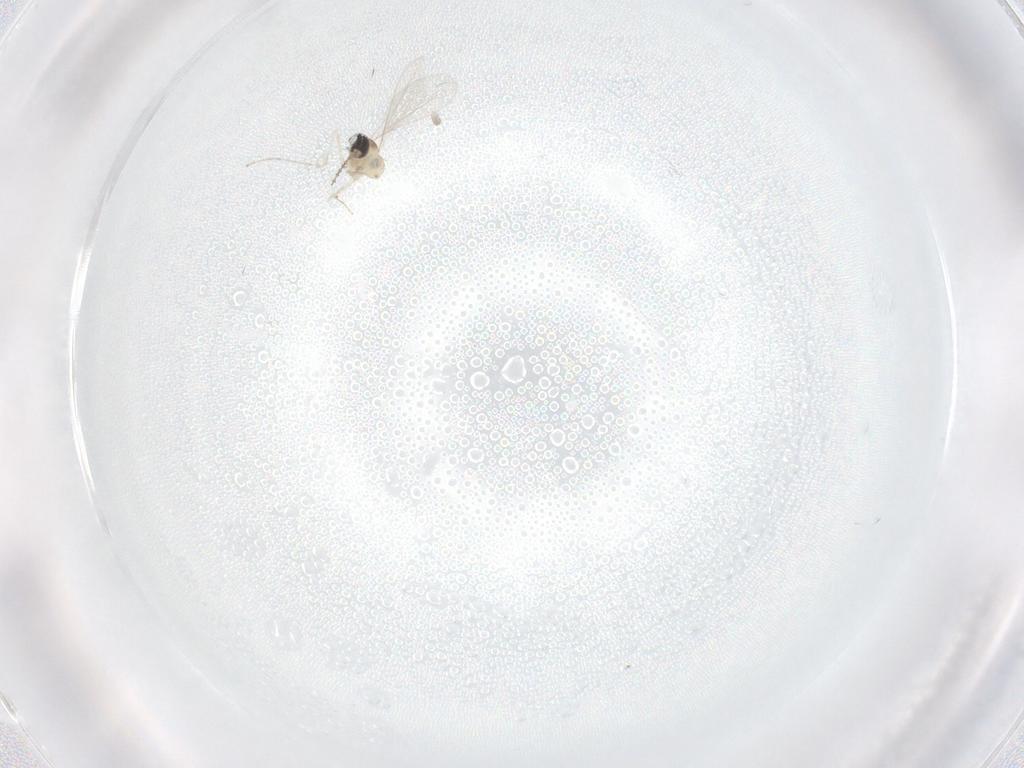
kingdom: Animalia
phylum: Arthropoda
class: Insecta
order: Diptera
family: Cecidomyiidae
